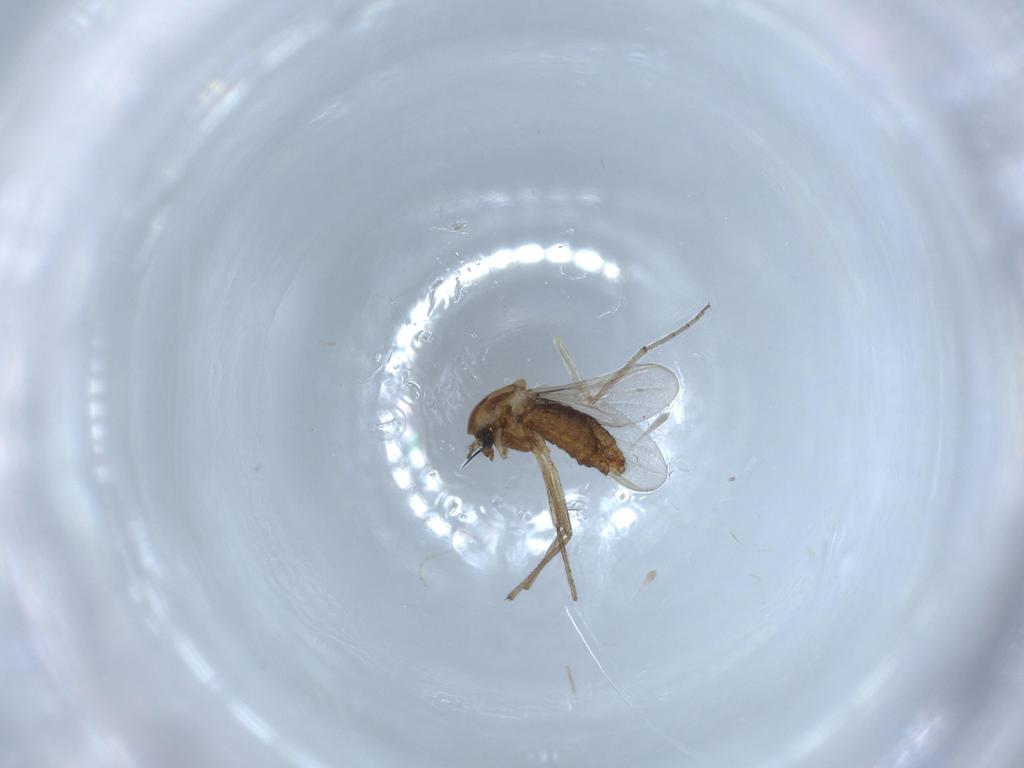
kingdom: Animalia
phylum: Arthropoda
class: Insecta
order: Diptera
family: Chironomidae
